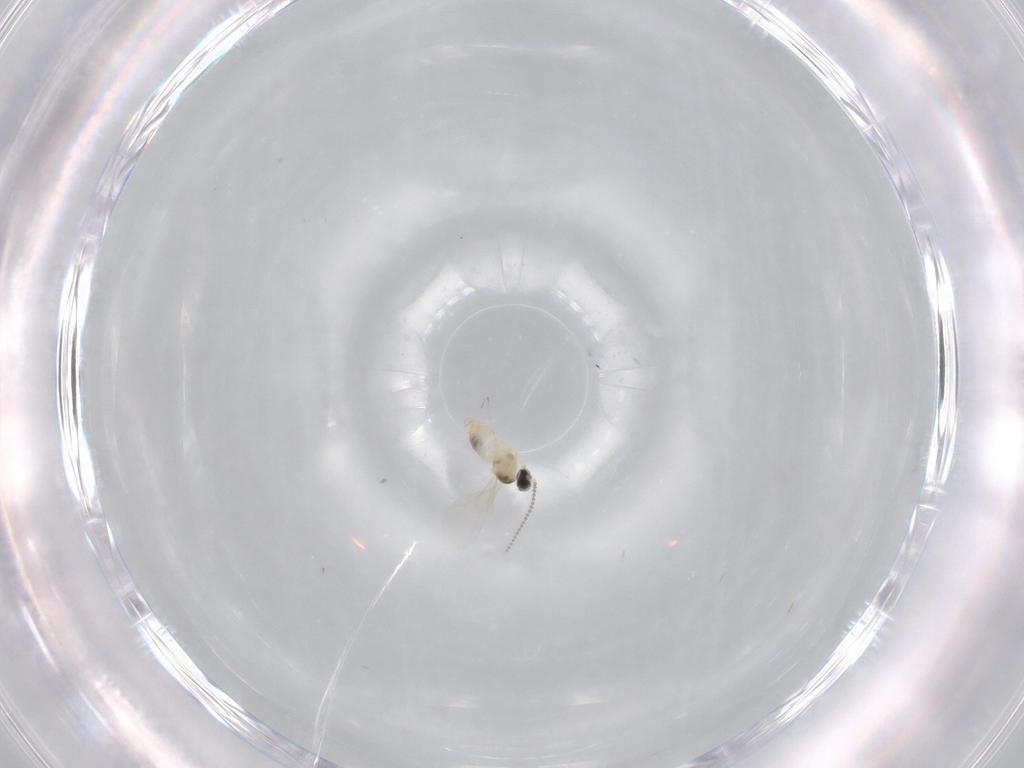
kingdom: Animalia
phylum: Arthropoda
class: Insecta
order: Diptera
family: Cecidomyiidae
